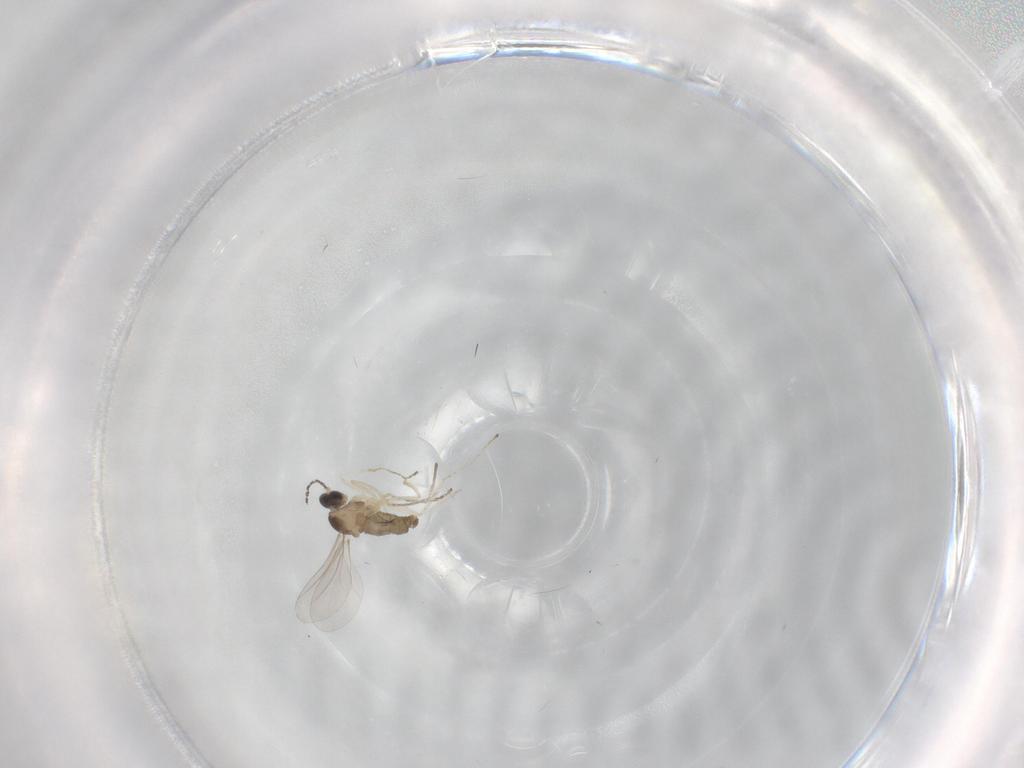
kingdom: Animalia
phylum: Arthropoda
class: Insecta
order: Diptera
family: Cecidomyiidae
